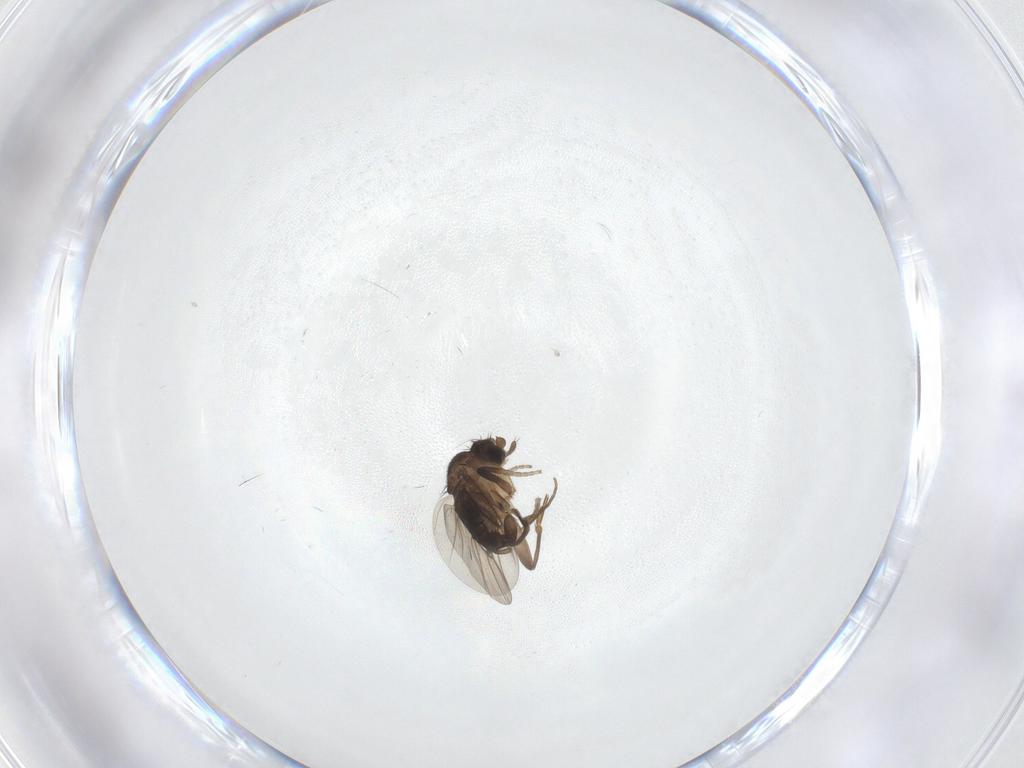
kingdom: Animalia
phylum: Arthropoda
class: Insecta
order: Diptera
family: Phoridae
